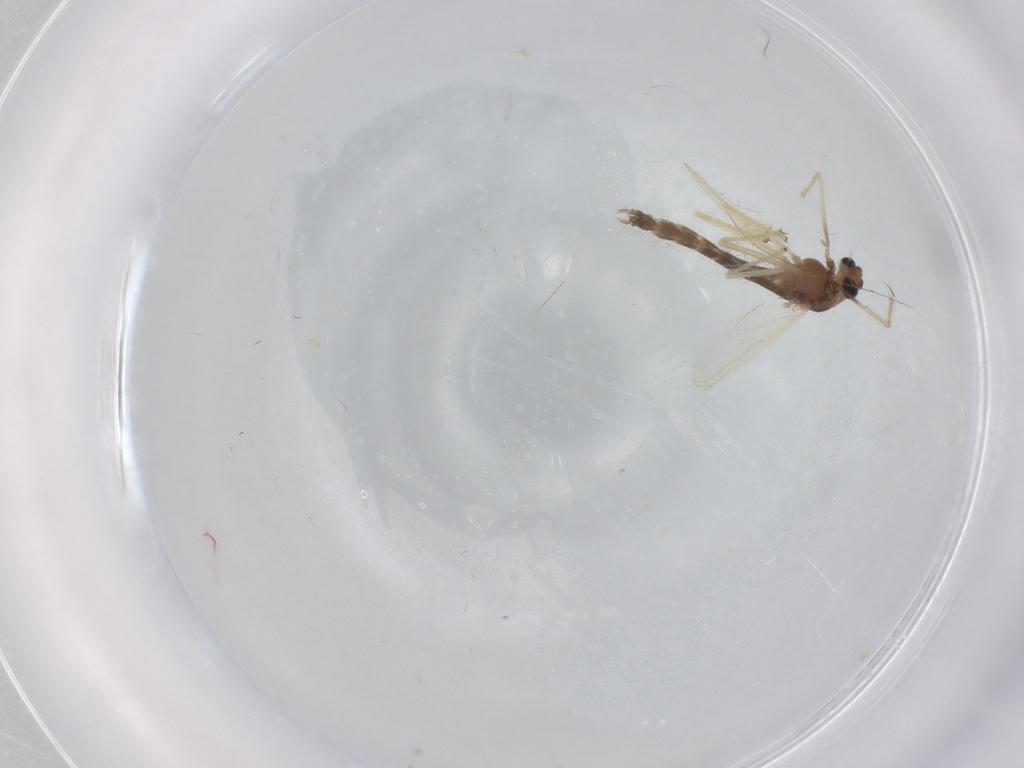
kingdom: Animalia
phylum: Arthropoda
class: Insecta
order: Diptera
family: Chironomidae
